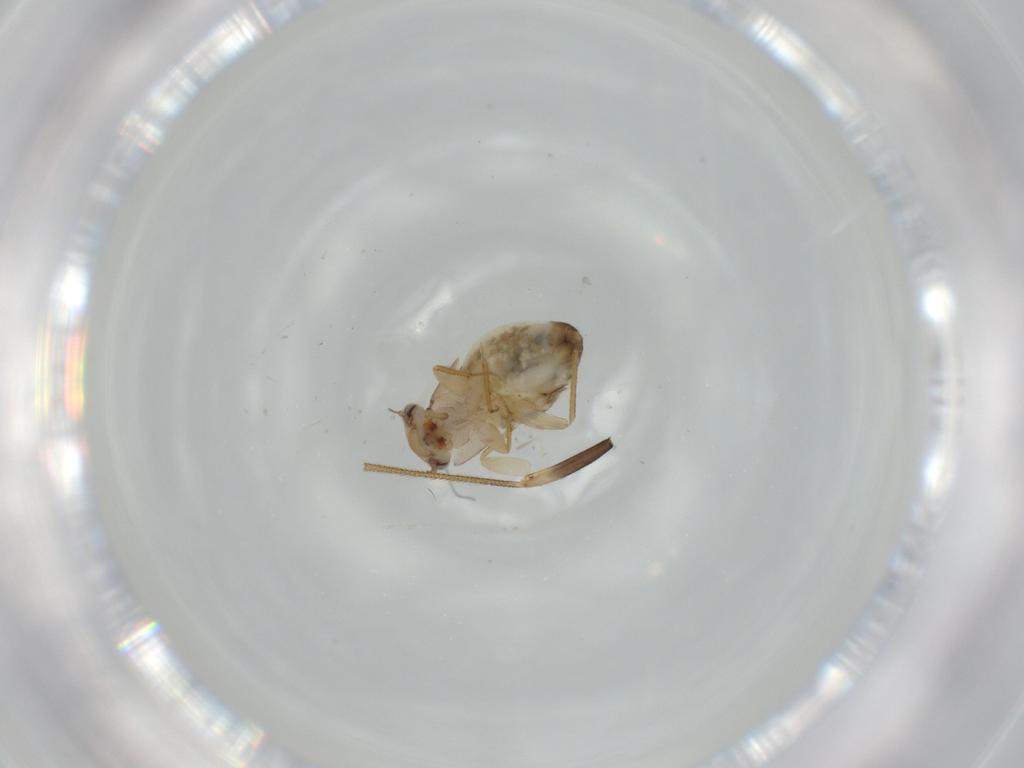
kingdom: Animalia
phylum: Arthropoda
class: Insecta
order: Psocodea
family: Epipsocidae
